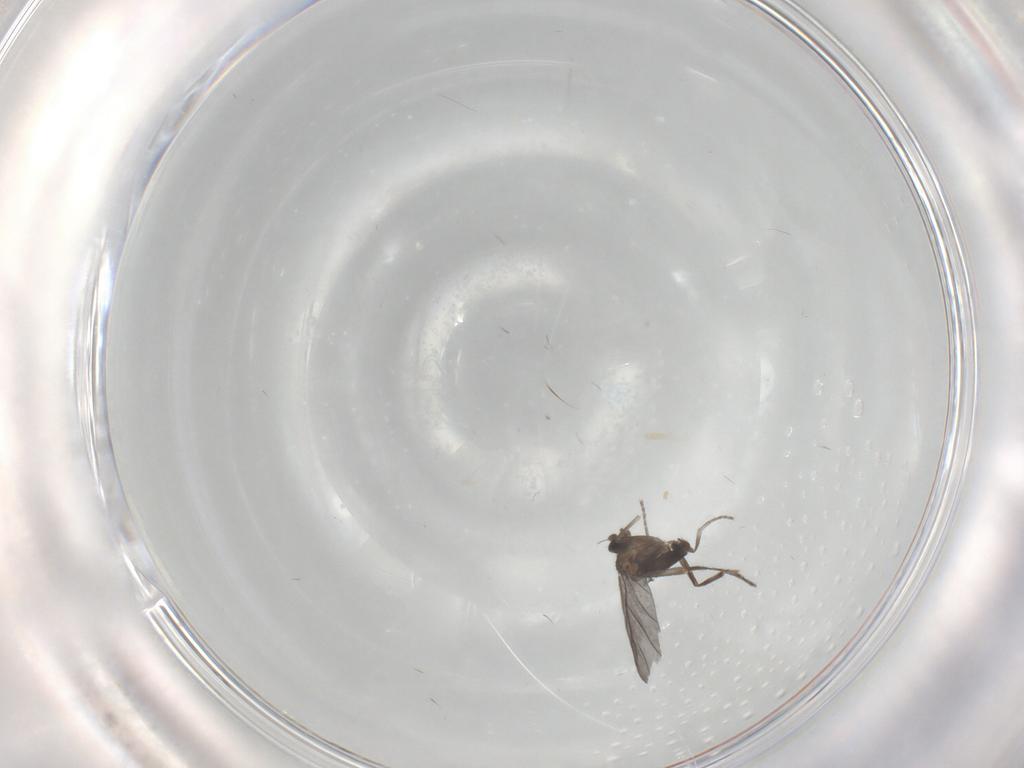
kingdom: Animalia
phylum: Arthropoda
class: Insecta
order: Diptera
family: Phoridae
